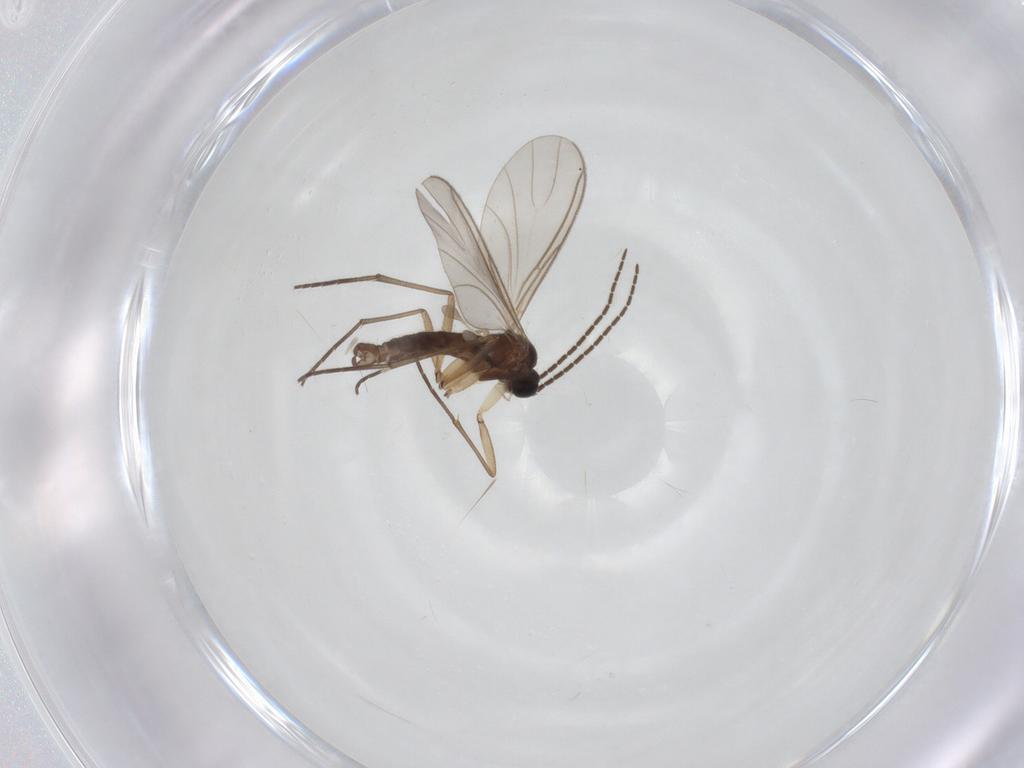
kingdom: Animalia
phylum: Arthropoda
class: Insecta
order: Diptera
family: Sciaridae
